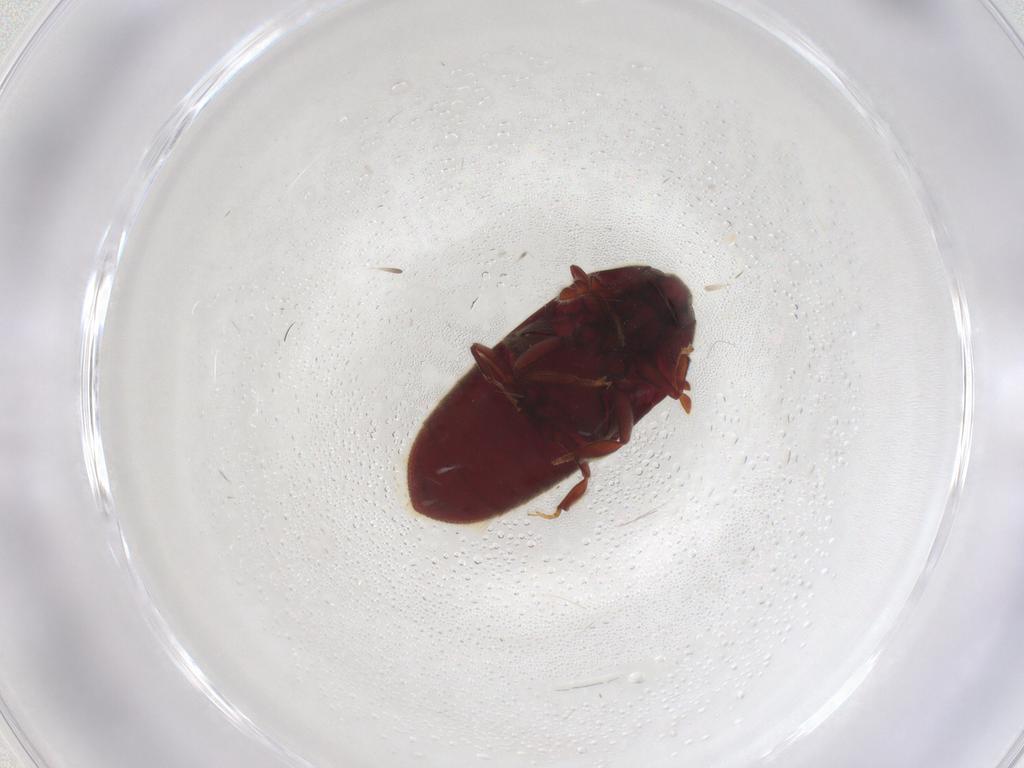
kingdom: Animalia
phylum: Arthropoda
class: Insecta
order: Coleoptera
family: Throscidae
